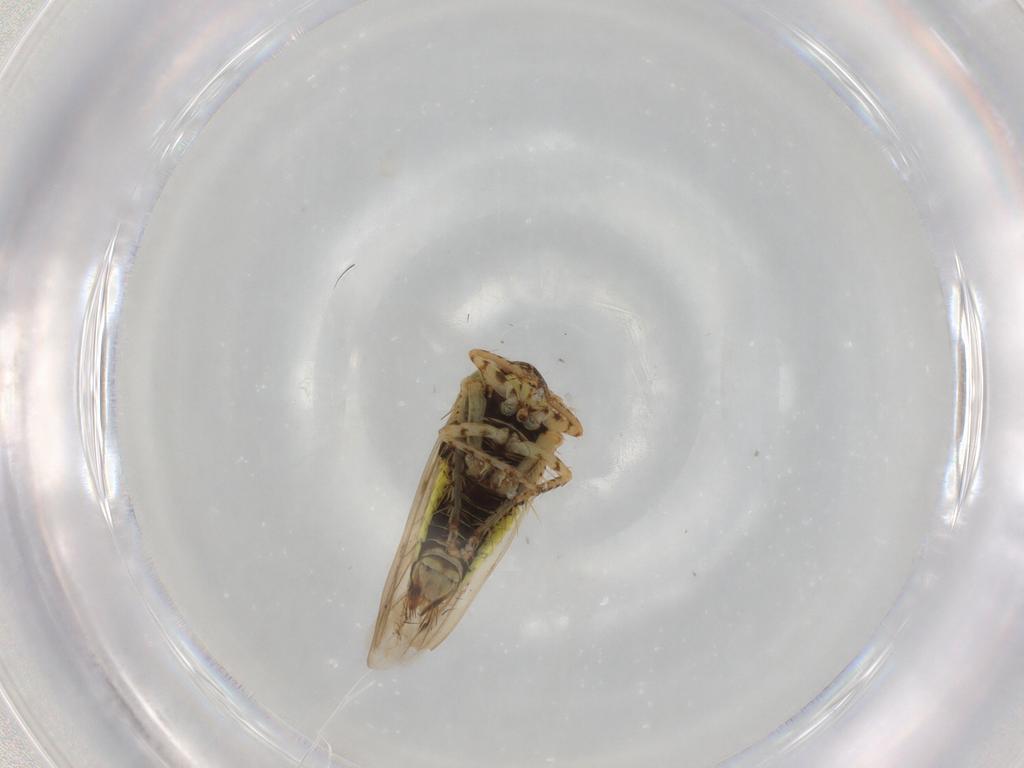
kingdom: Animalia
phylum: Arthropoda
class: Insecta
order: Hemiptera
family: Cicadellidae
